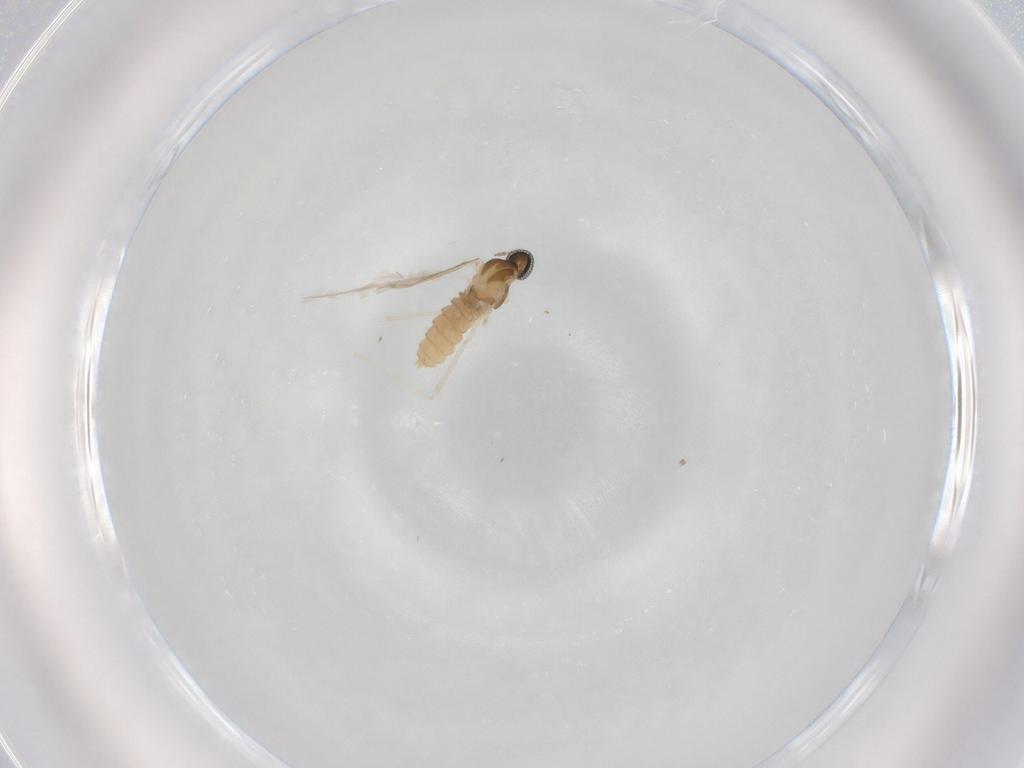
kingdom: Animalia
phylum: Arthropoda
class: Insecta
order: Diptera
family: Cecidomyiidae
